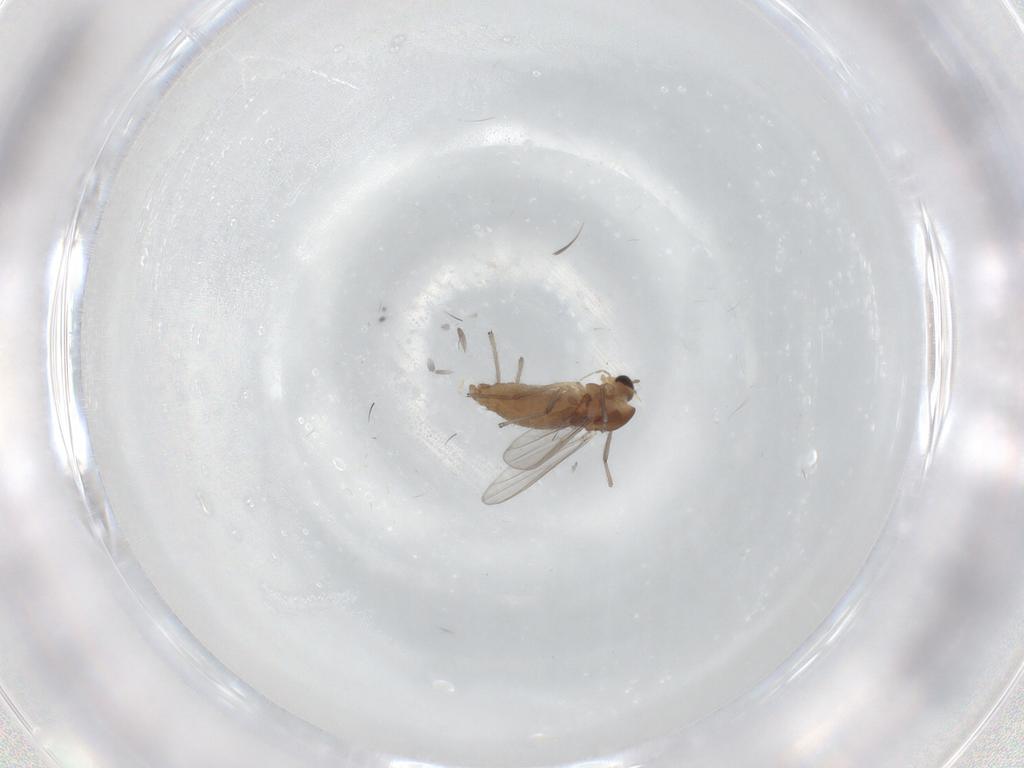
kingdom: Animalia
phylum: Arthropoda
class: Insecta
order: Diptera
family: Chironomidae
